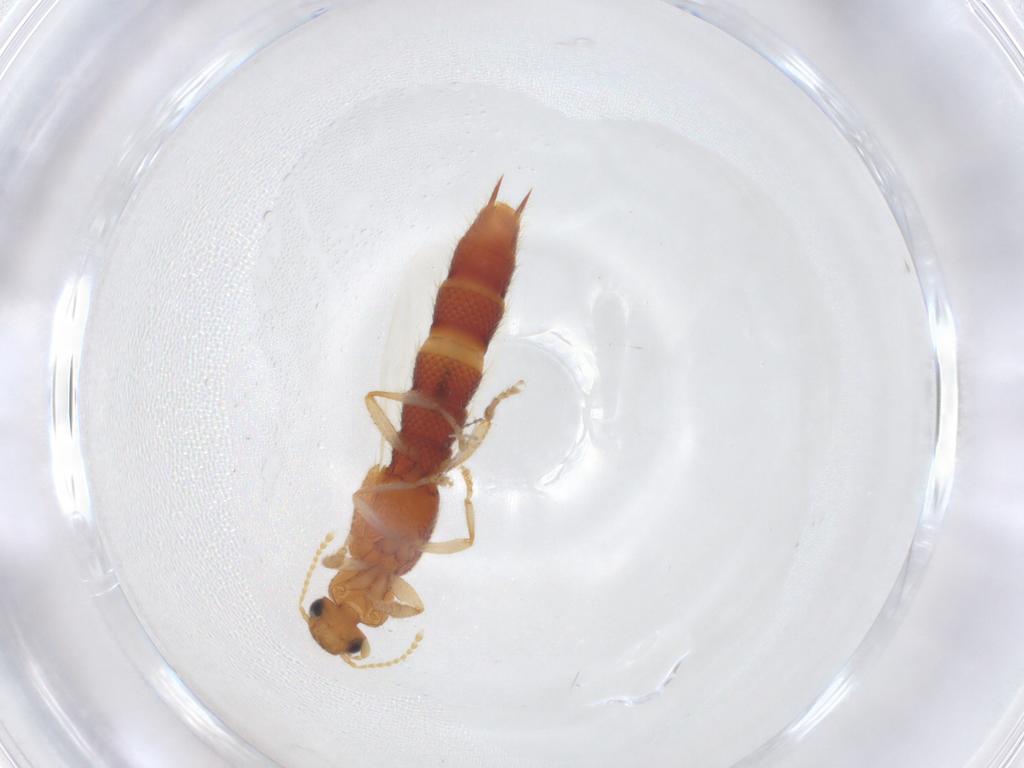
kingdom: Animalia
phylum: Arthropoda
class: Insecta
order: Coleoptera
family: Staphylinidae
